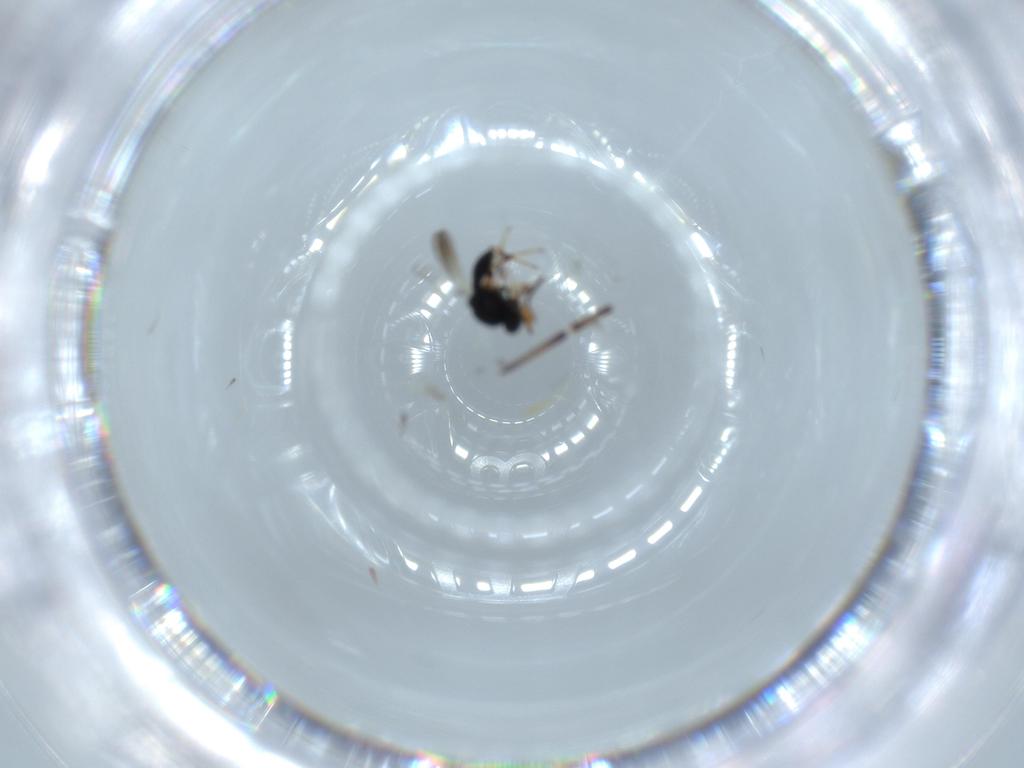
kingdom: Animalia
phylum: Arthropoda
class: Insecta
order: Hymenoptera
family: Platygastridae
